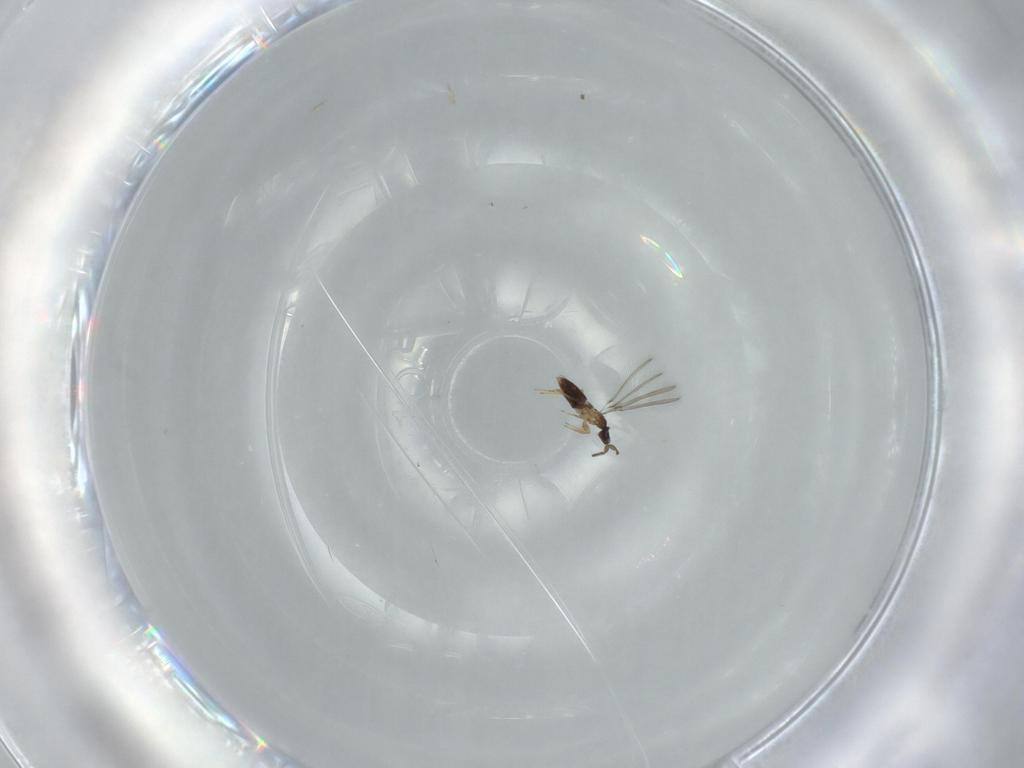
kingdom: Animalia
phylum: Arthropoda
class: Insecta
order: Hymenoptera
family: Mymaridae
